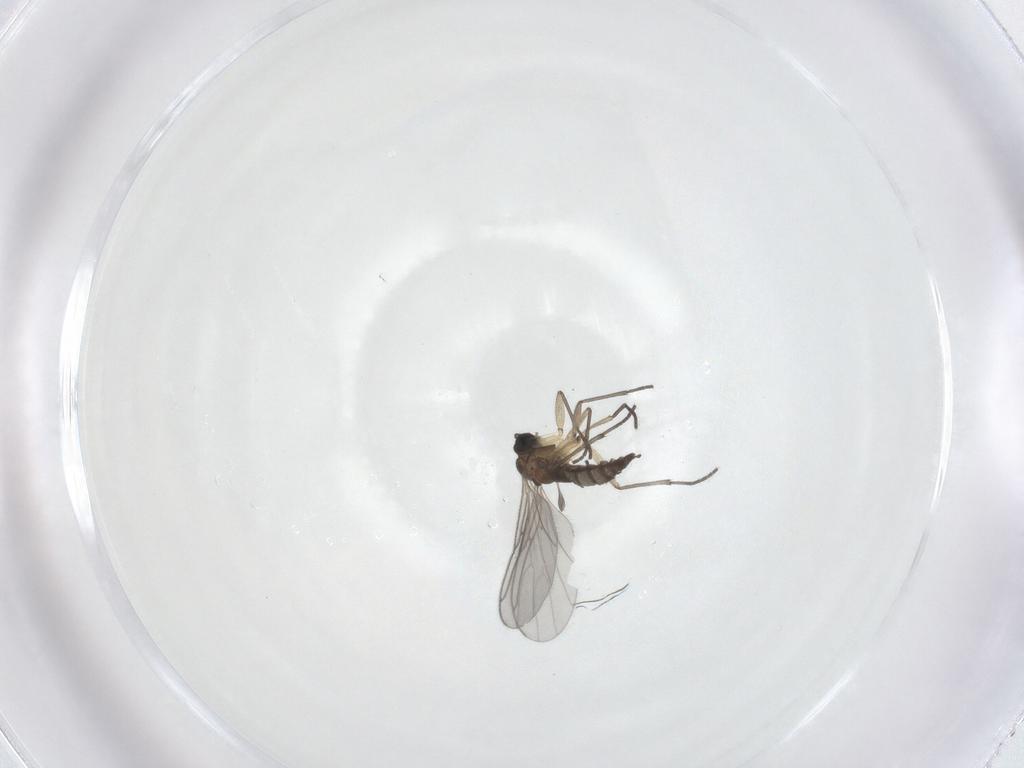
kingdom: Animalia
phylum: Arthropoda
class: Insecta
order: Diptera
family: Sciaridae
